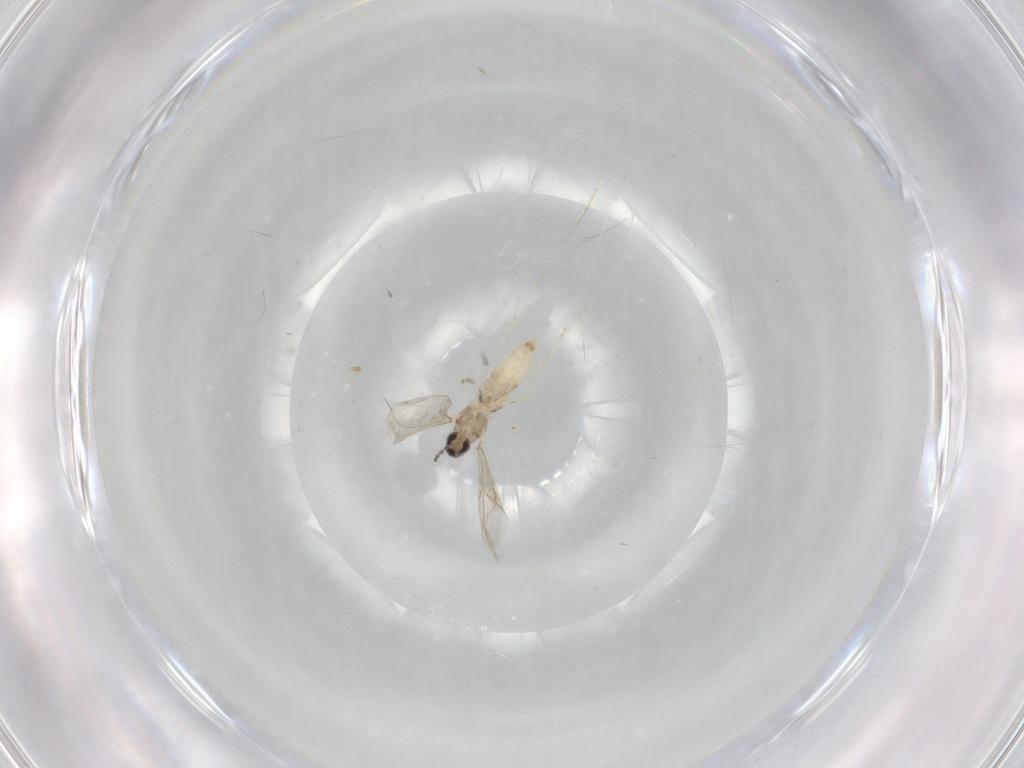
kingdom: Animalia
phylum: Arthropoda
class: Insecta
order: Diptera
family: Cecidomyiidae
